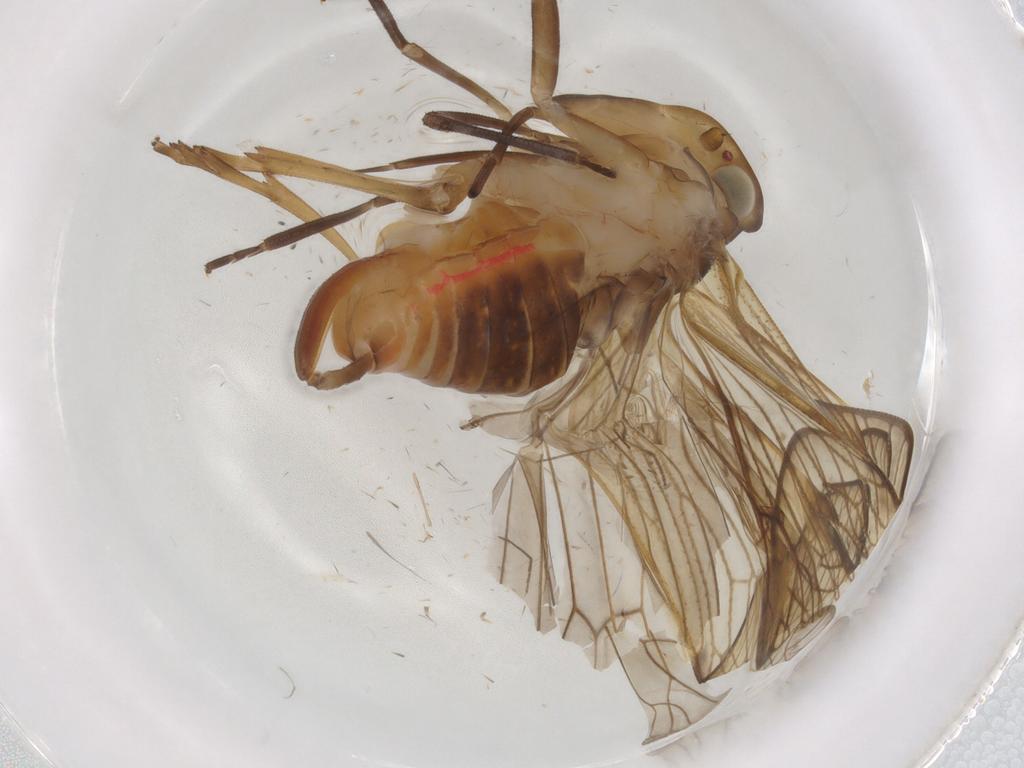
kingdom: Animalia
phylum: Arthropoda
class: Insecta
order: Hemiptera
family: Cixiidae
